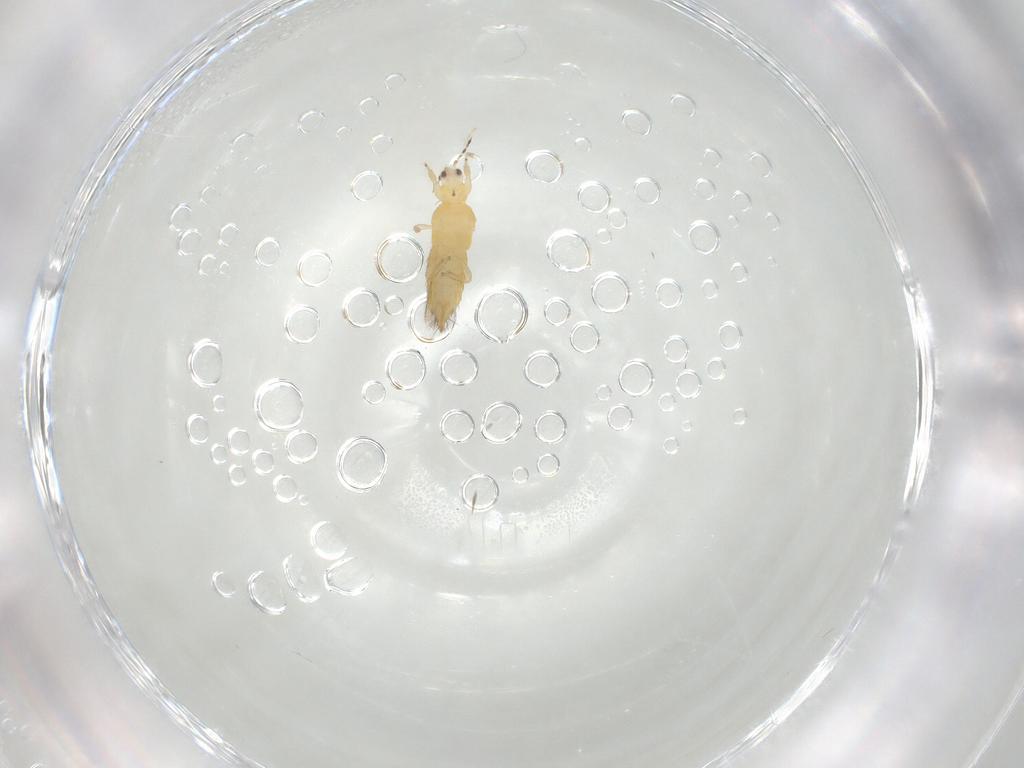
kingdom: Animalia
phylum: Arthropoda
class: Insecta
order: Thysanoptera
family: Thripidae
